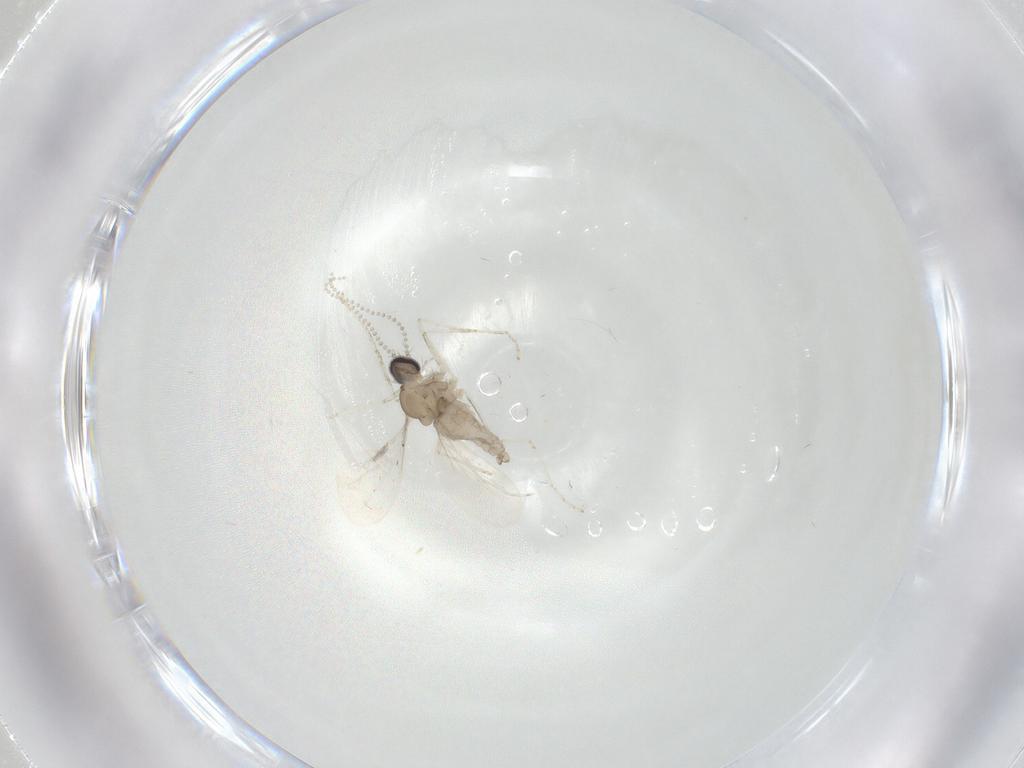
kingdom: Animalia
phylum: Arthropoda
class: Insecta
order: Diptera
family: Cecidomyiidae
